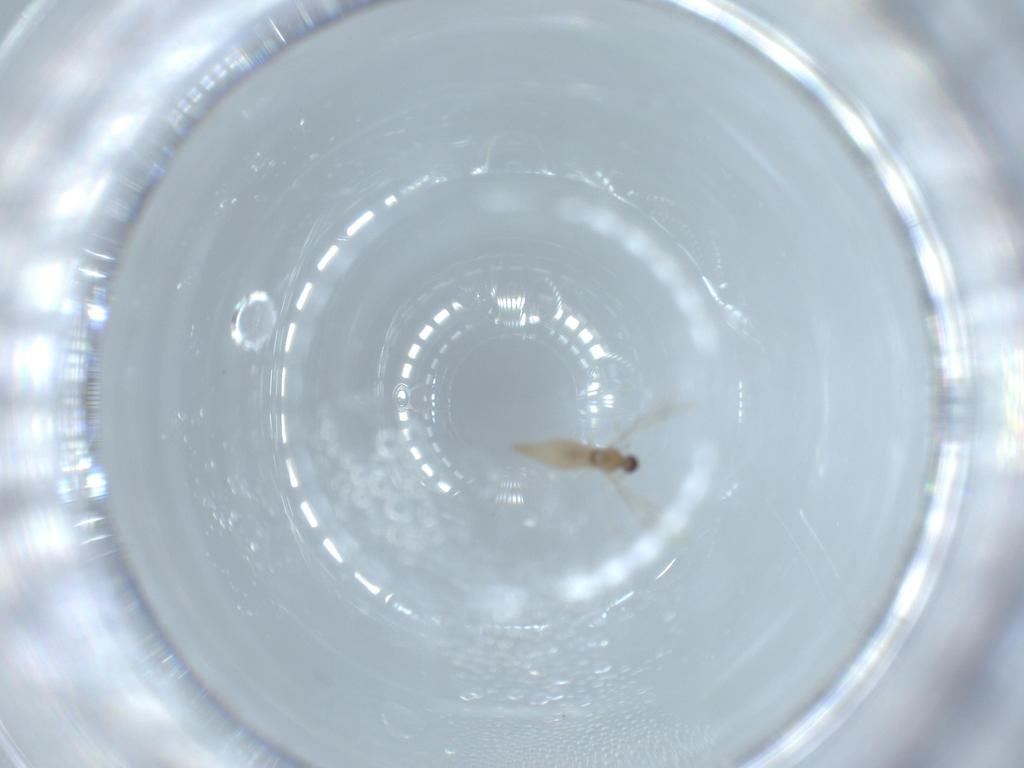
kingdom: Animalia
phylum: Arthropoda
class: Insecta
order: Diptera
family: Cecidomyiidae
